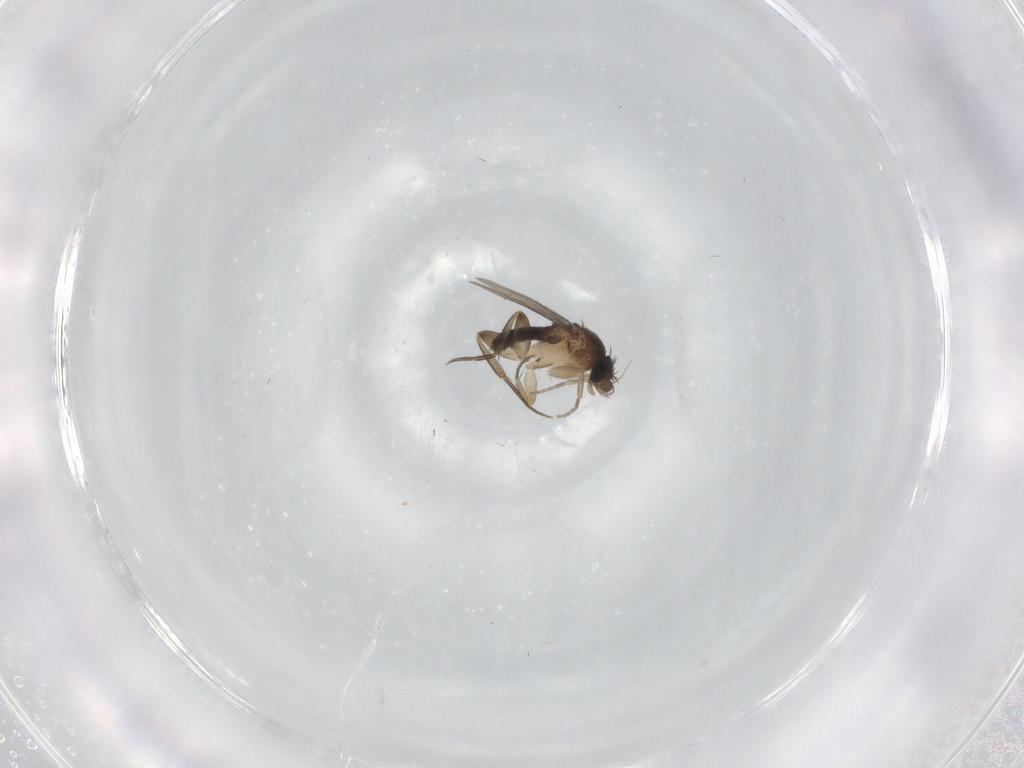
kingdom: Animalia
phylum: Arthropoda
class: Insecta
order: Diptera
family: Phoridae
